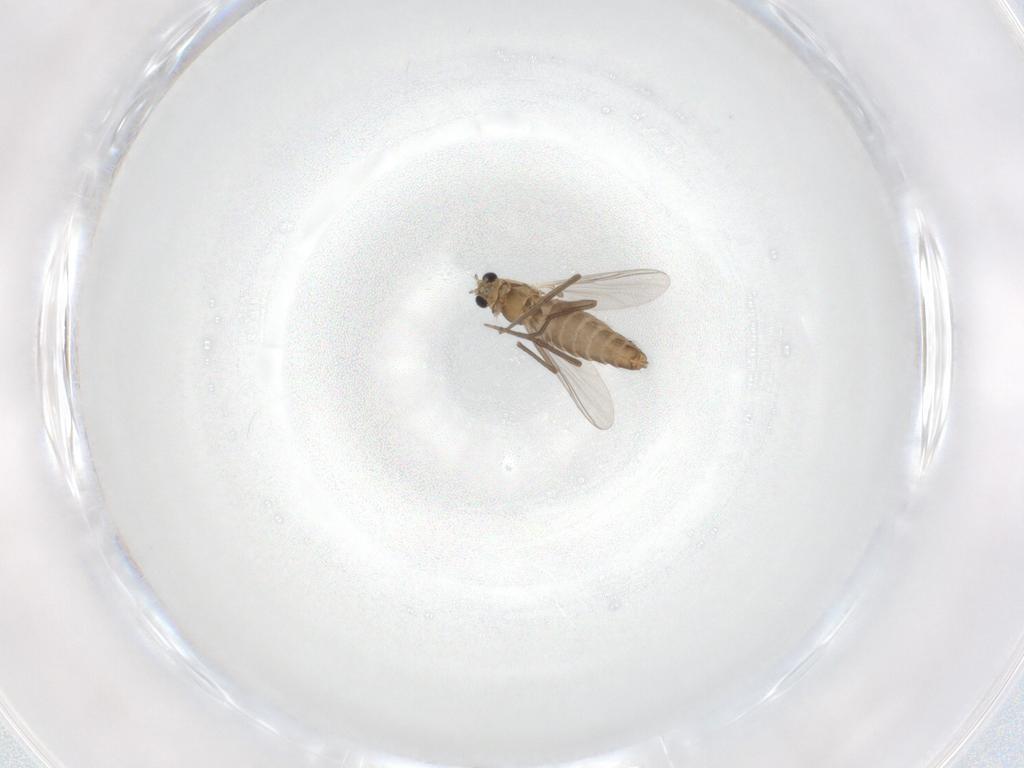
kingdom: Animalia
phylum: Arthropoda
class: Insecta
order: Diptera
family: Chironomidae
